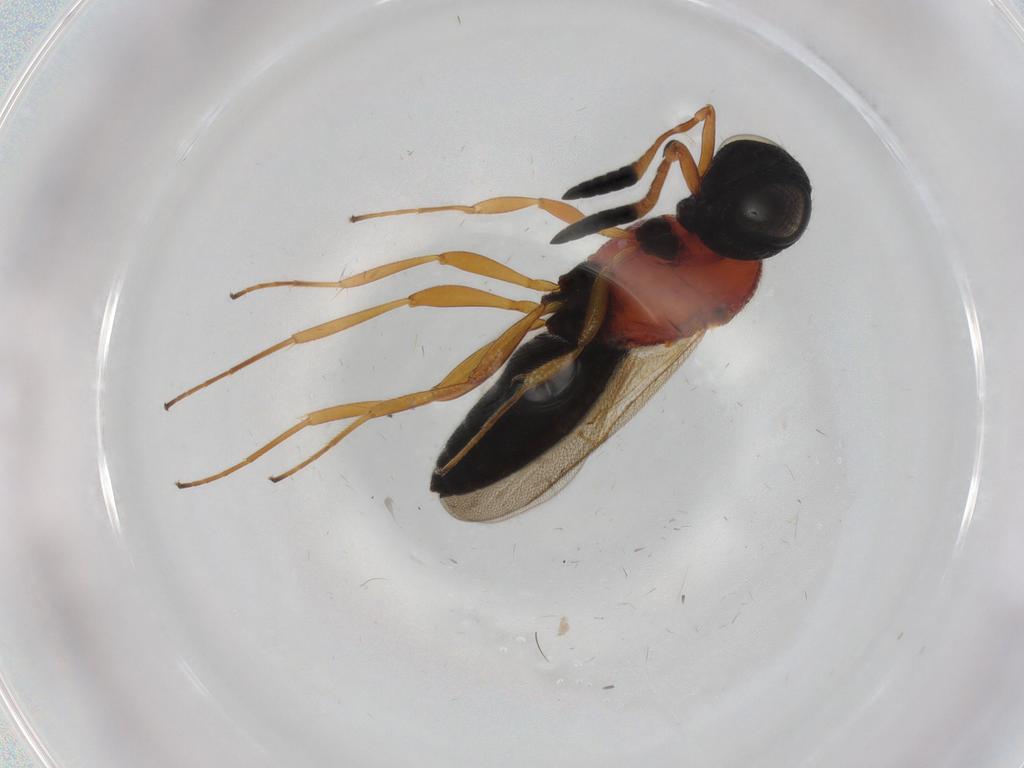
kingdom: Animalia
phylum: Arthropoda
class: Insecta
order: Hymenoptera
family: Scelionidae
